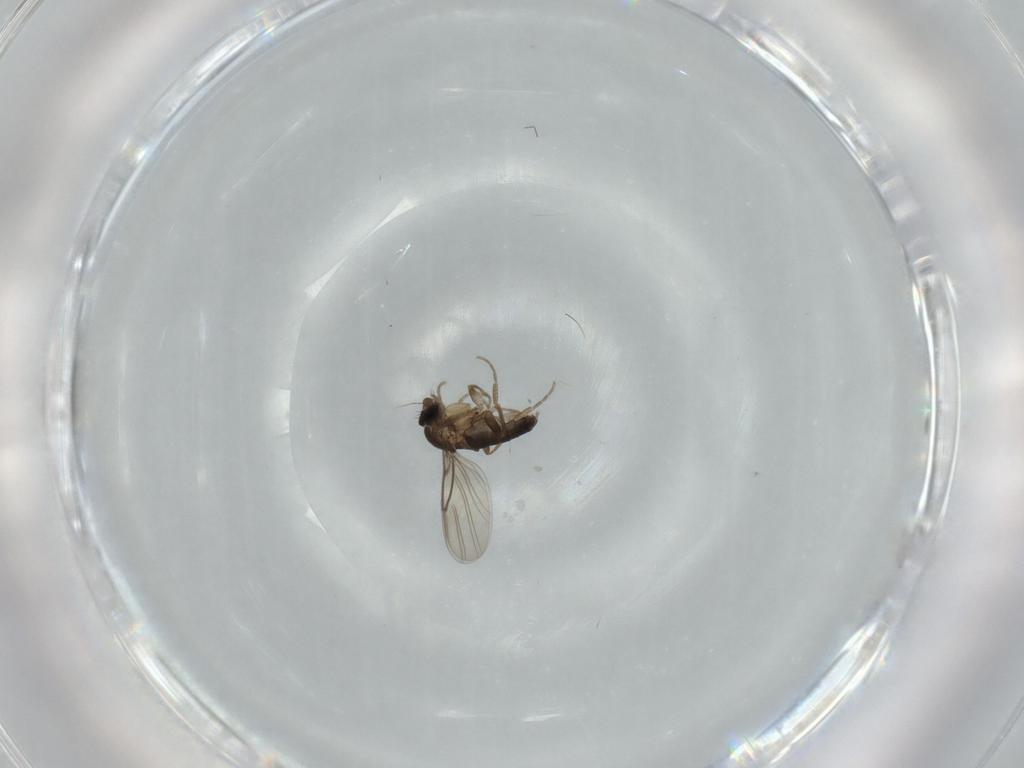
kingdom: Animalia
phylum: Arthropoda
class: Insecta
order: Diptera
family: Phoridae
